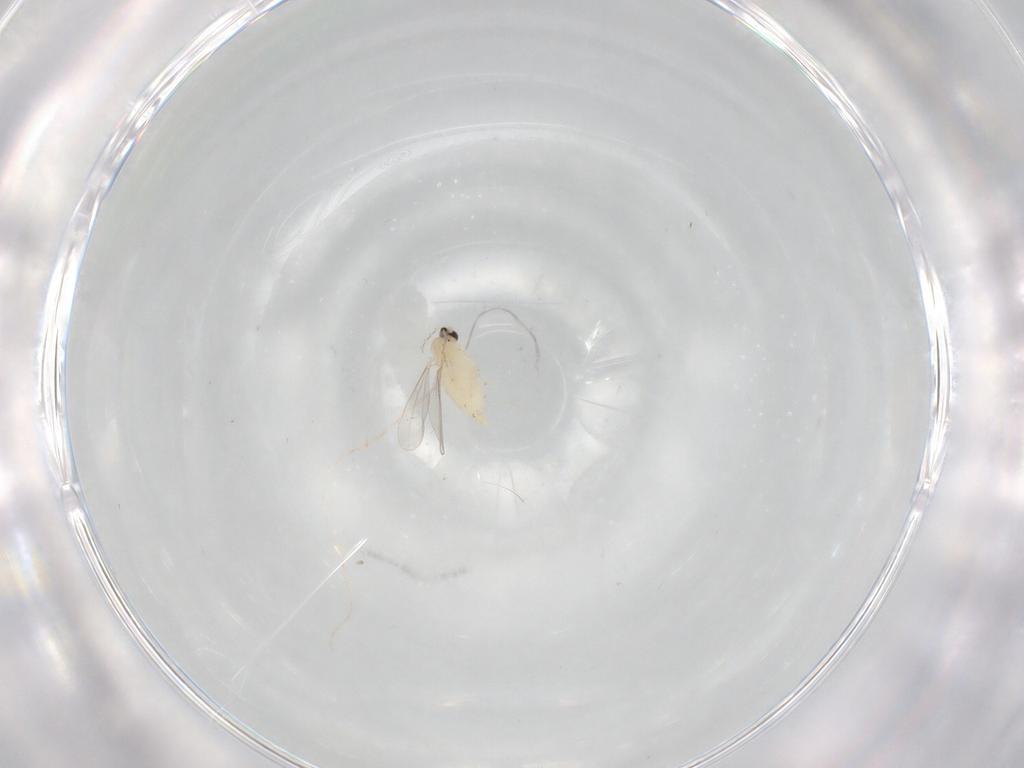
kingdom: Animalia
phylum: Arthropoda
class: Insecta
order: Diptera
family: Cecidomyiidae
